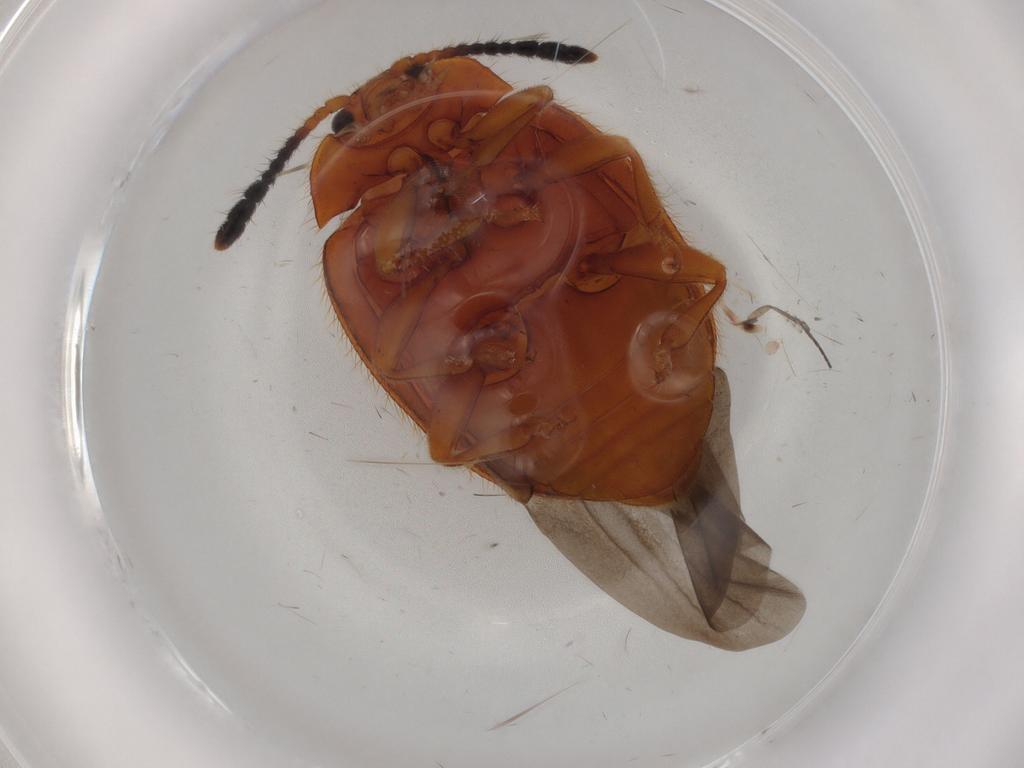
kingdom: Animalia
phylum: Arthropoda
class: Insecta
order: Coleoptera
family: Endomychidae
